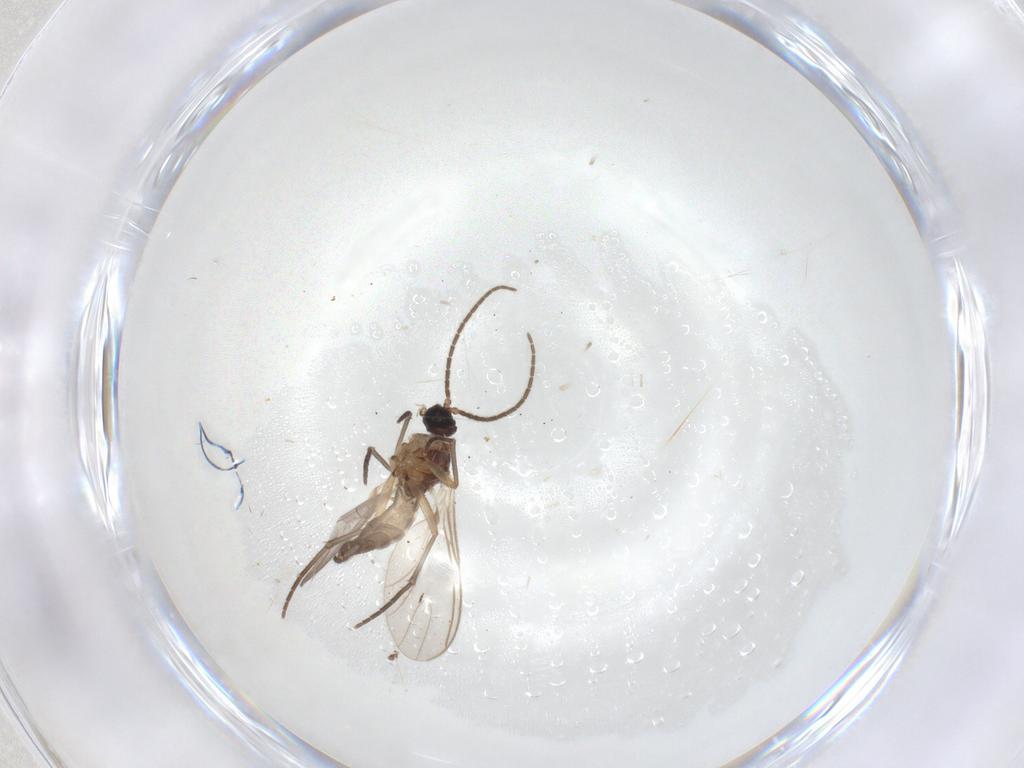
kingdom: Animalia
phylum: Arthropoda
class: Insecta
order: Diptera
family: Sciaridae
